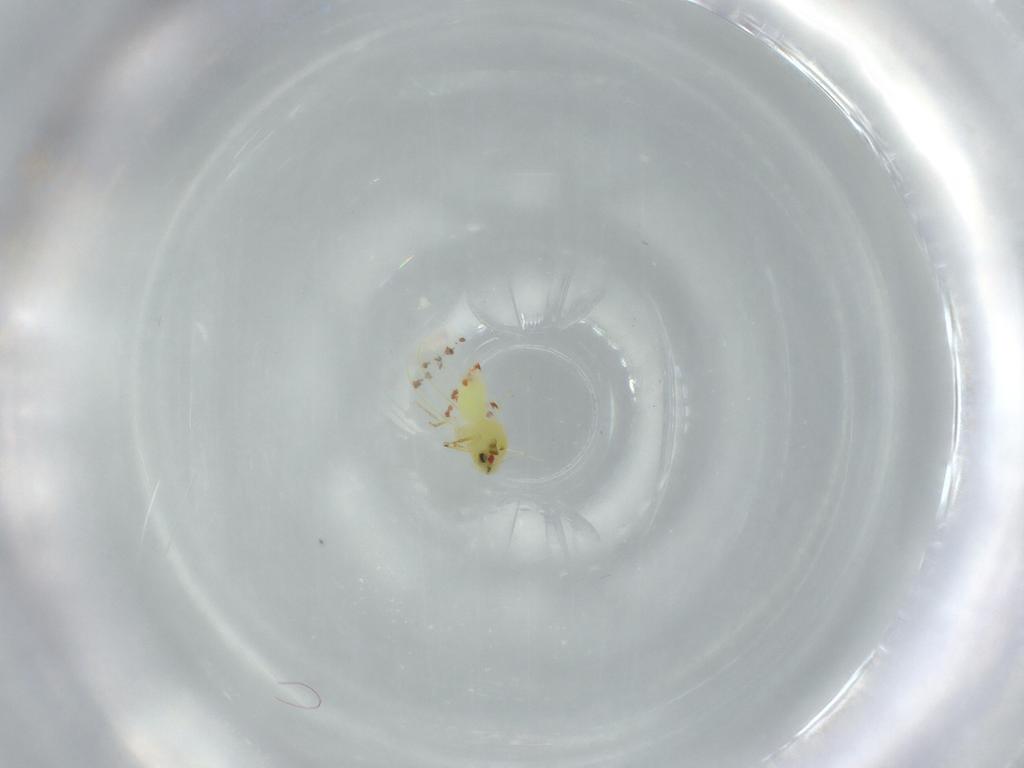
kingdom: Animalia
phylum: Arthropoda
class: Insecta
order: Hemiptera
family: Aleyrodidae
